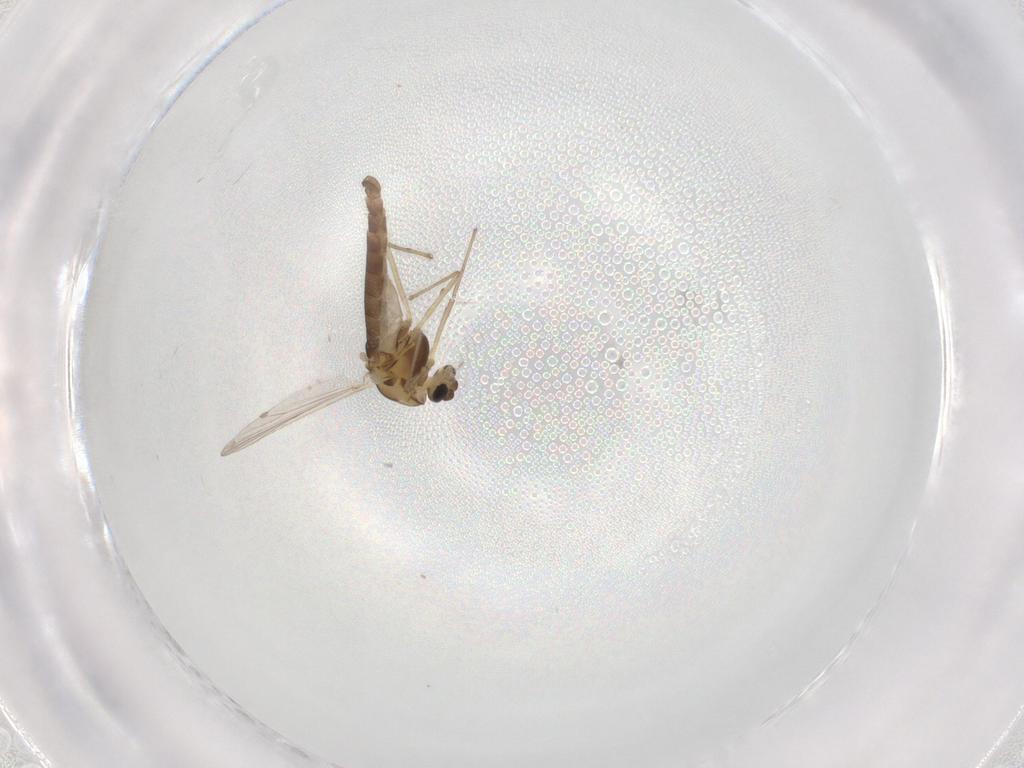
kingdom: Animalia
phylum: Arthropoda
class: Insecta
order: Diptera
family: Chironomidae
